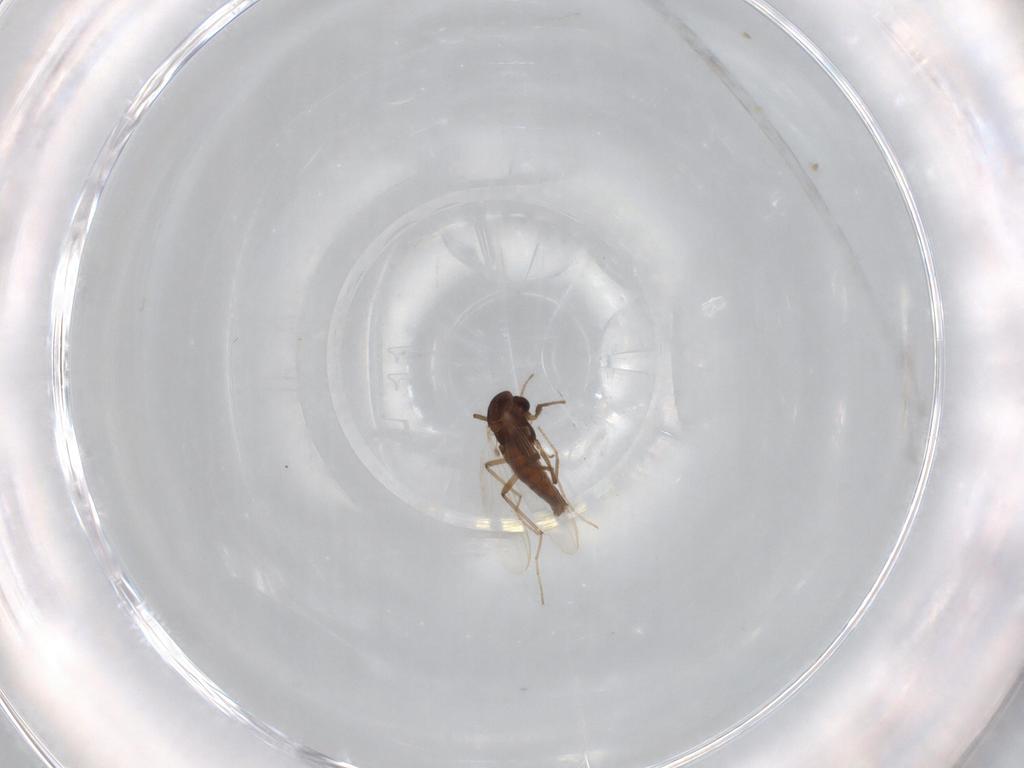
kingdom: Animalia
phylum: Arthropoda
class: Insecta
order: Diptera
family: Chironomidae
